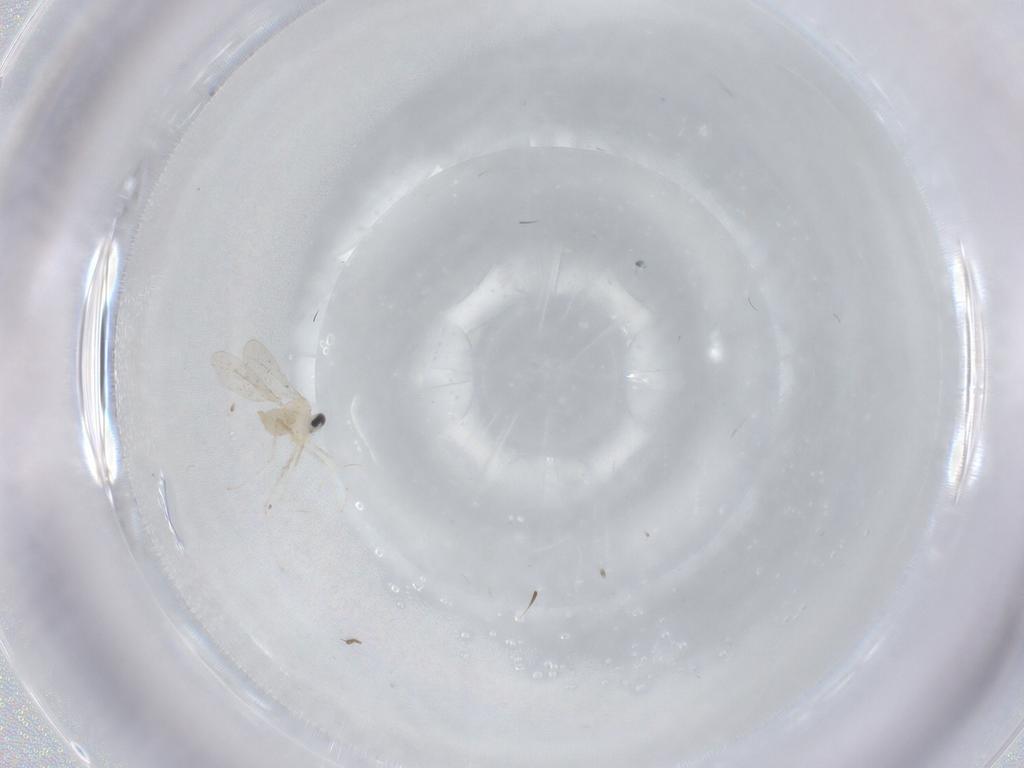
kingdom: Animalia
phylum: Arthropoda
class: Insecta
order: Diptera
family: Cecidomyiidae
